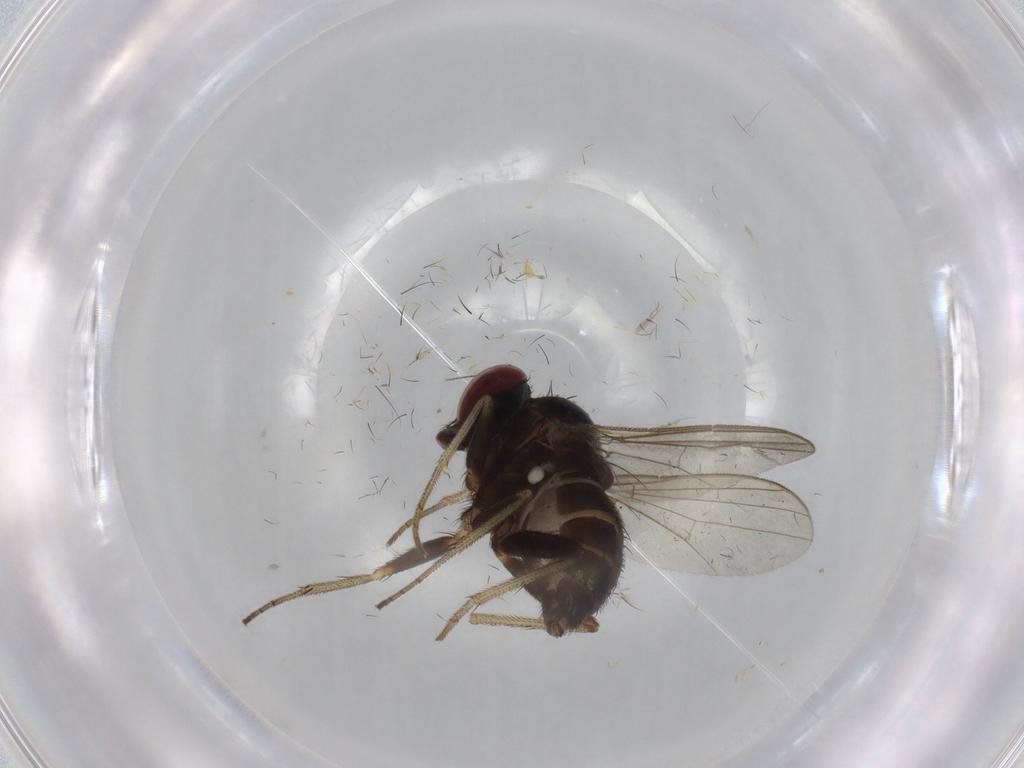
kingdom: Animalia
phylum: Arthropoda
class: Insecta
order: Diptera
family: Dolichopodidae
